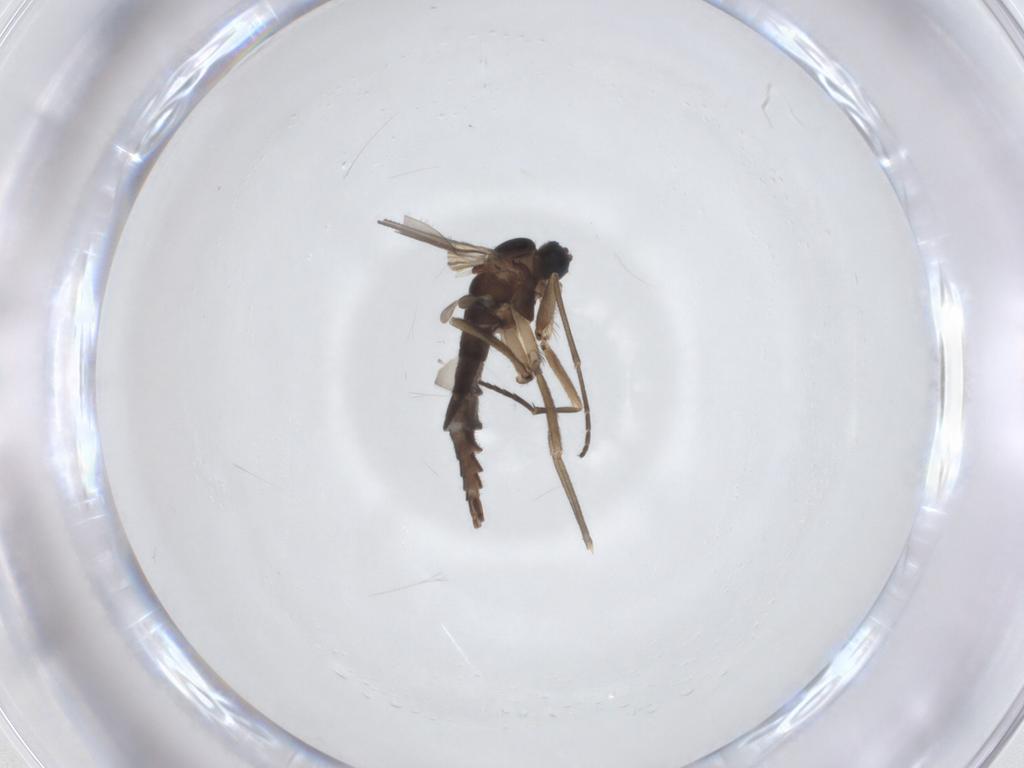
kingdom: Animalia
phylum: Arthropoda
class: Insecta
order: Diptera
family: Sciaridae
